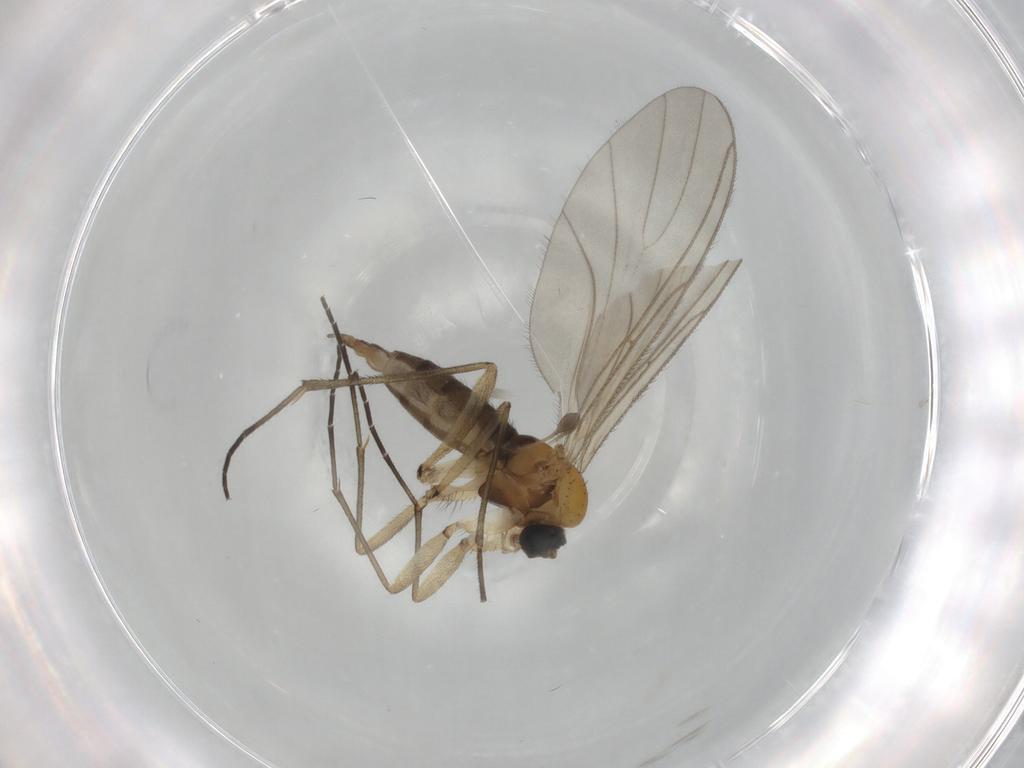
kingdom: Animalia
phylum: Arthropoda
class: Insecta
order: Diptera
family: Sciaridae
